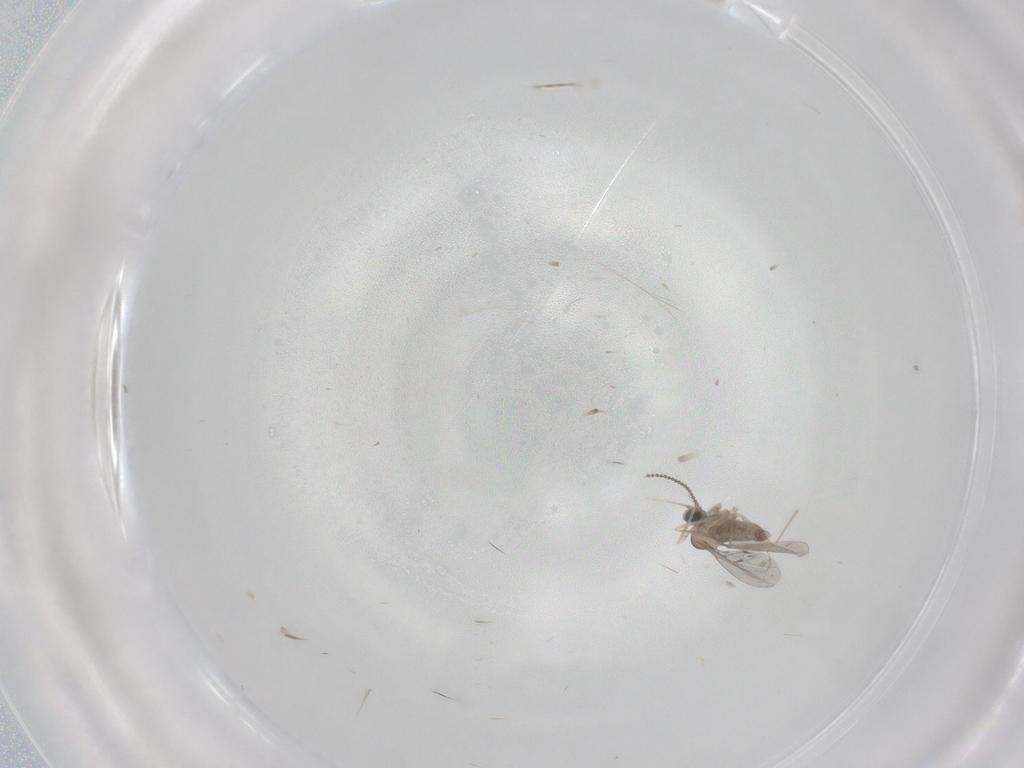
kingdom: Animalia
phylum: Arthropoda
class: Insecta
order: Diptera
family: Cecidomyiidae
